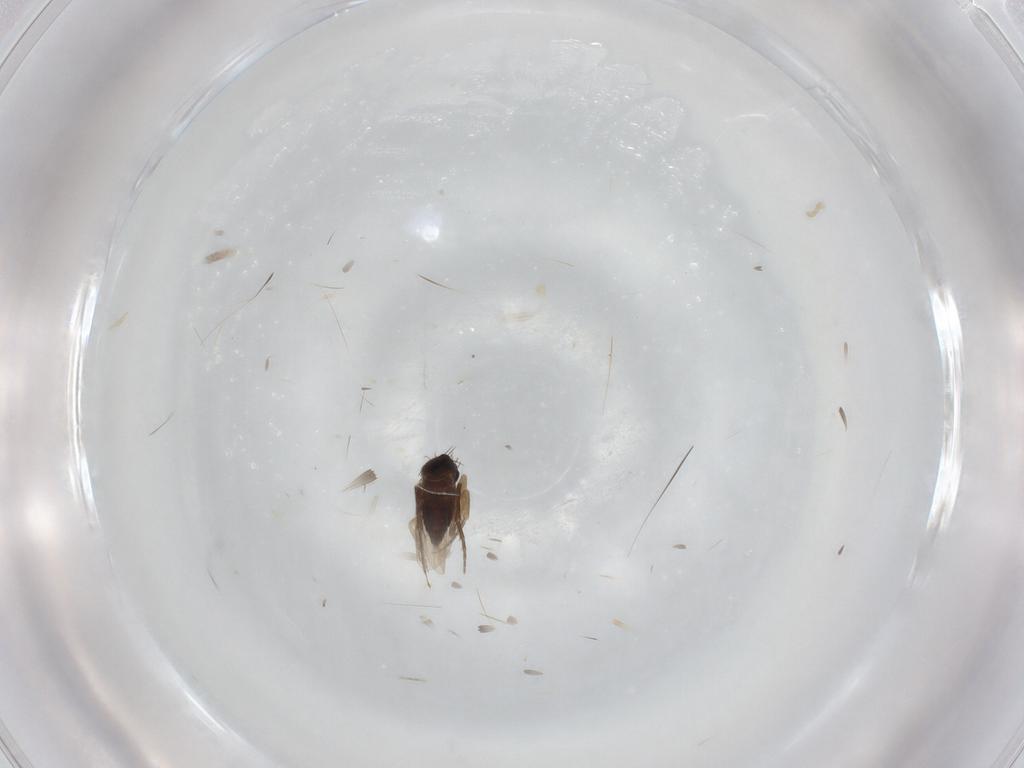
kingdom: Animalia
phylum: Arthropoda
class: Insecta
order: Diptera
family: Phoridae
